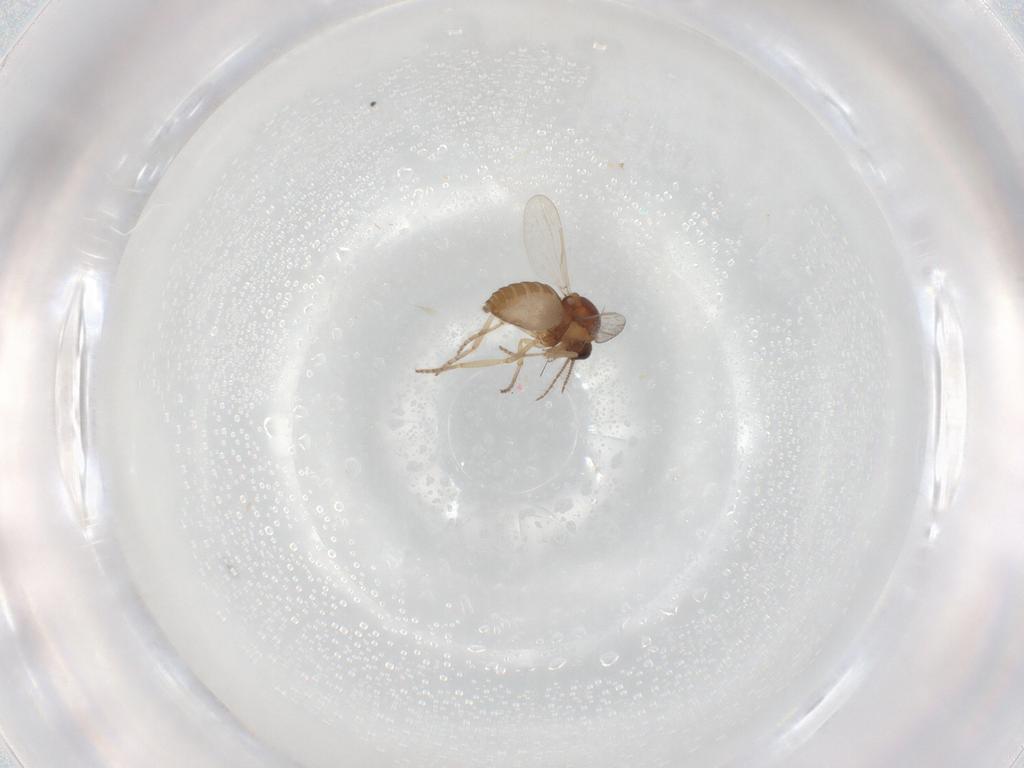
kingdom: Animalia
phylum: Arthropoda
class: Insecta
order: Diptera
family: Ceratopogonidae
